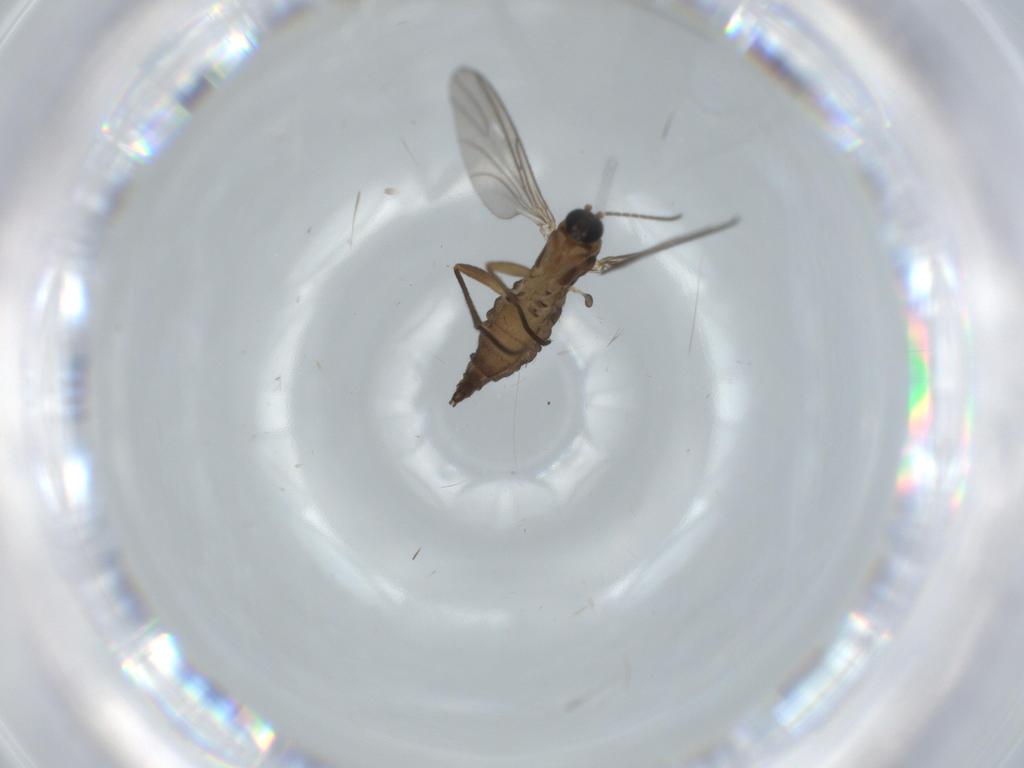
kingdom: Animalia
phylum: Arthropoda
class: Insecta
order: Diptera
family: Sciaridae
